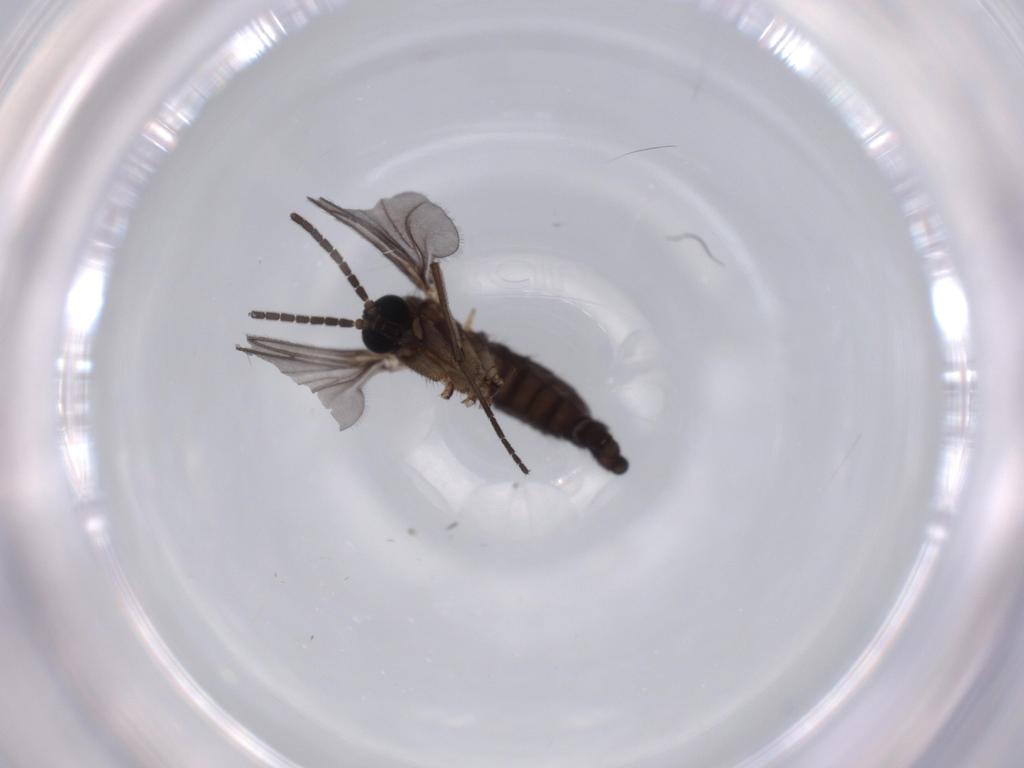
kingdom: Animalia
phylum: Arthropoda
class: Insecta
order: Diptera
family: Sciaridae
